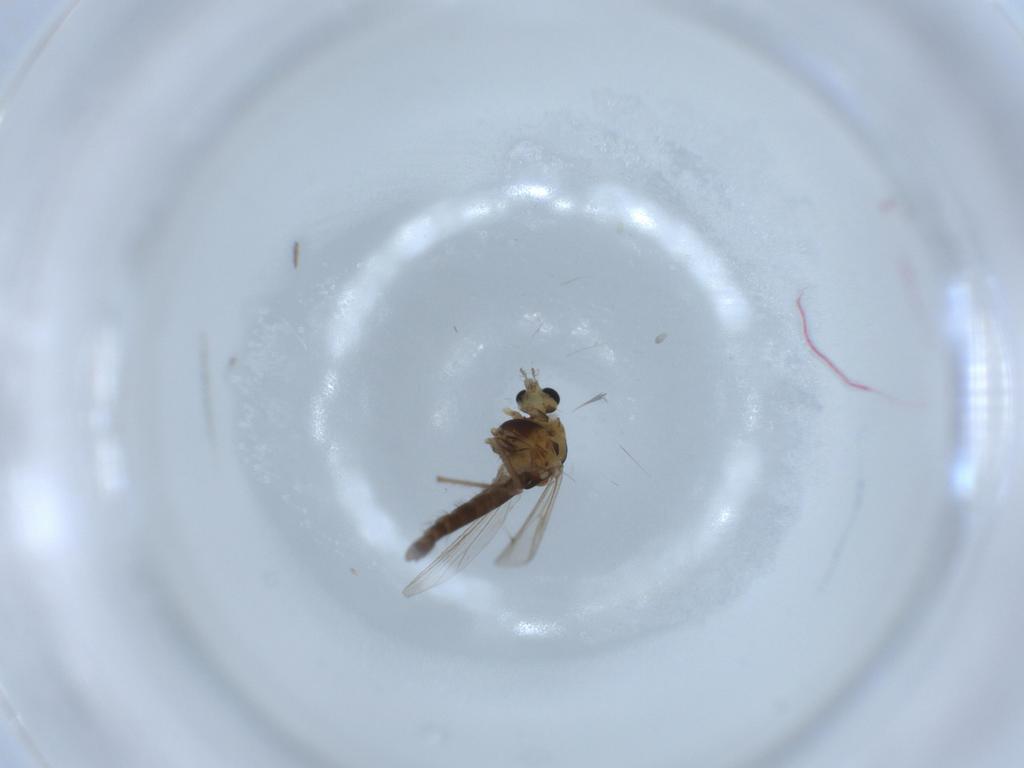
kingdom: Animalia
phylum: Arthropoda
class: Insecta
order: Diptera
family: Chironomidae
